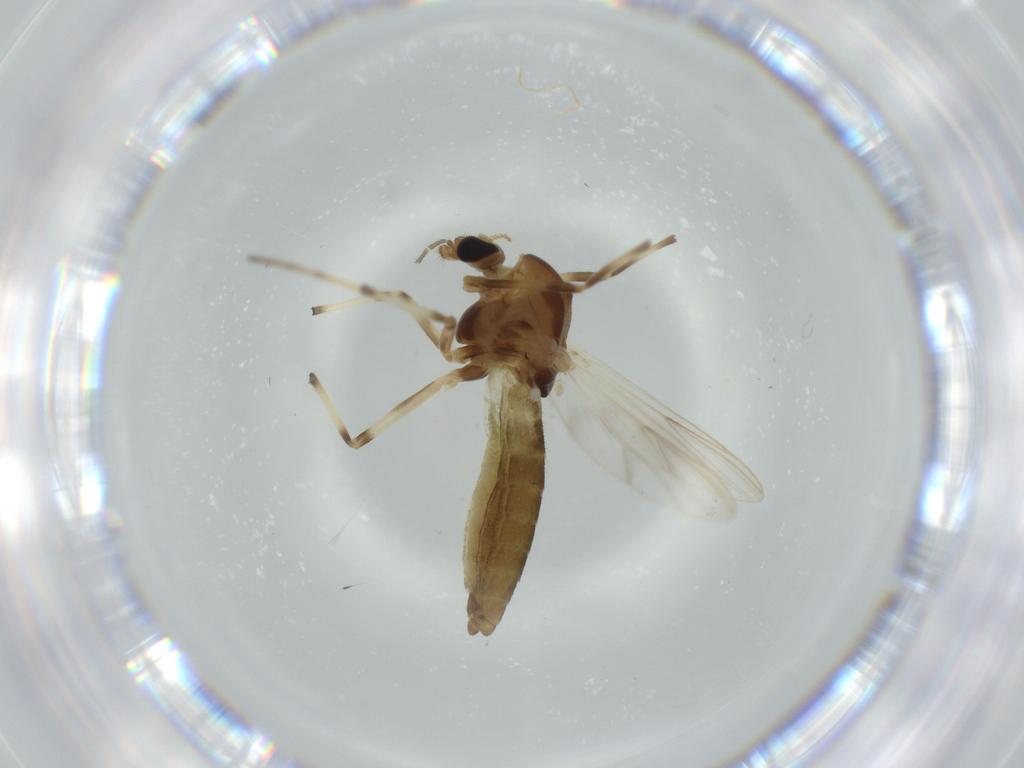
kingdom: Animalia
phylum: Arthropoda
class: Insecta
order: Diptera
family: Chironomidae
